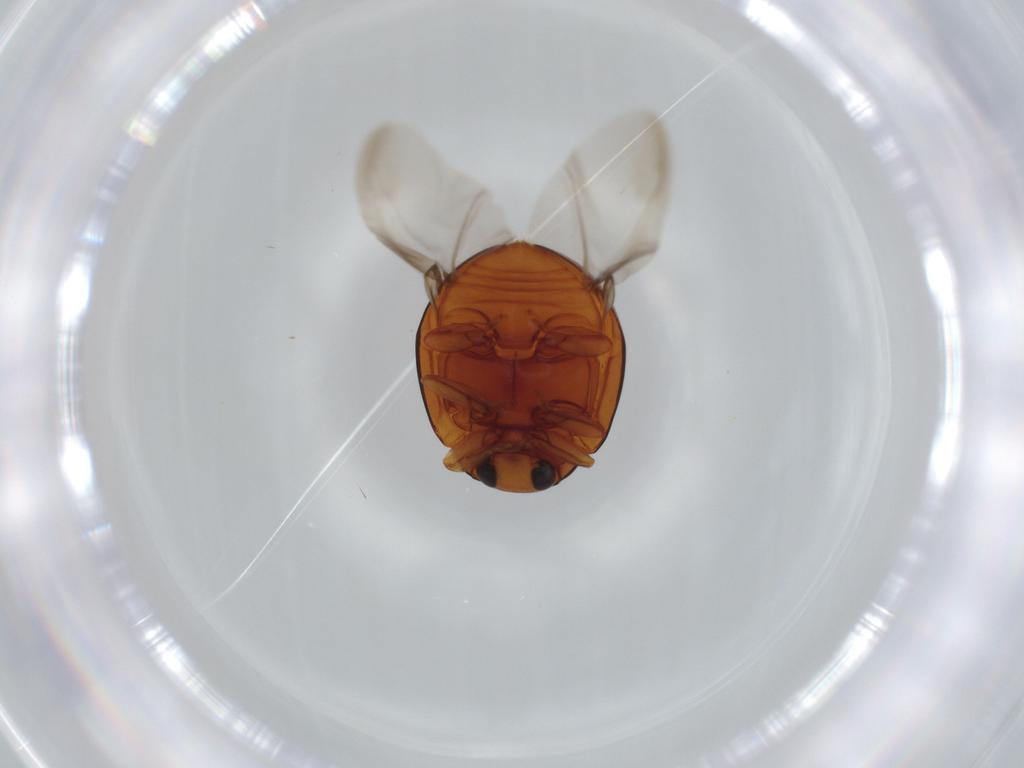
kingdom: Animalia
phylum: Arthropoda
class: Insecta
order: Coleoptera
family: Coccinellidae
